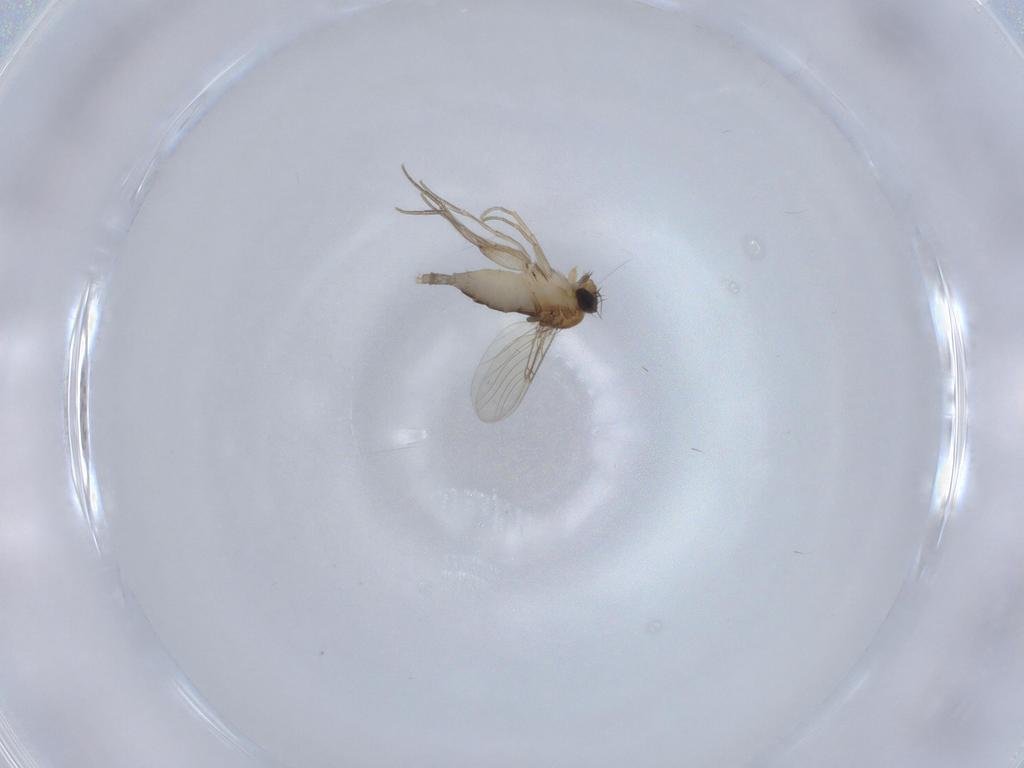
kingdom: Animalia
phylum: Arthropoda
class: Insecta
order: Diptera
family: Phoridae
